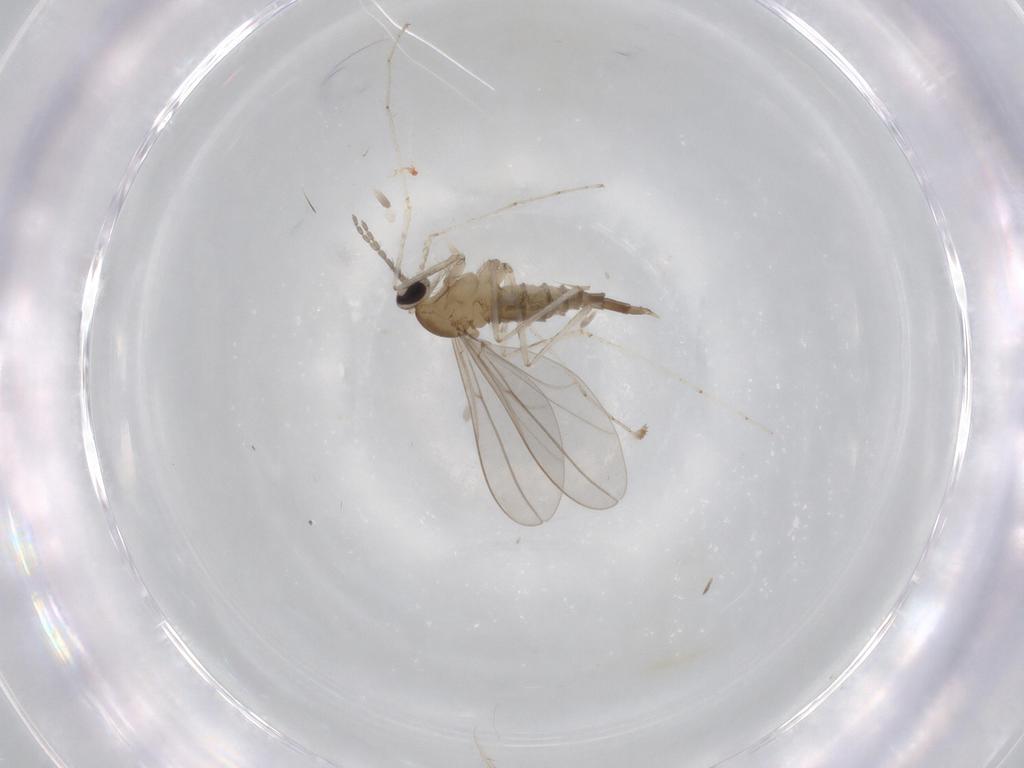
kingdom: Animalia
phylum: Arthropoda
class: Insecta
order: Diptera
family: Cecidomyiidae
